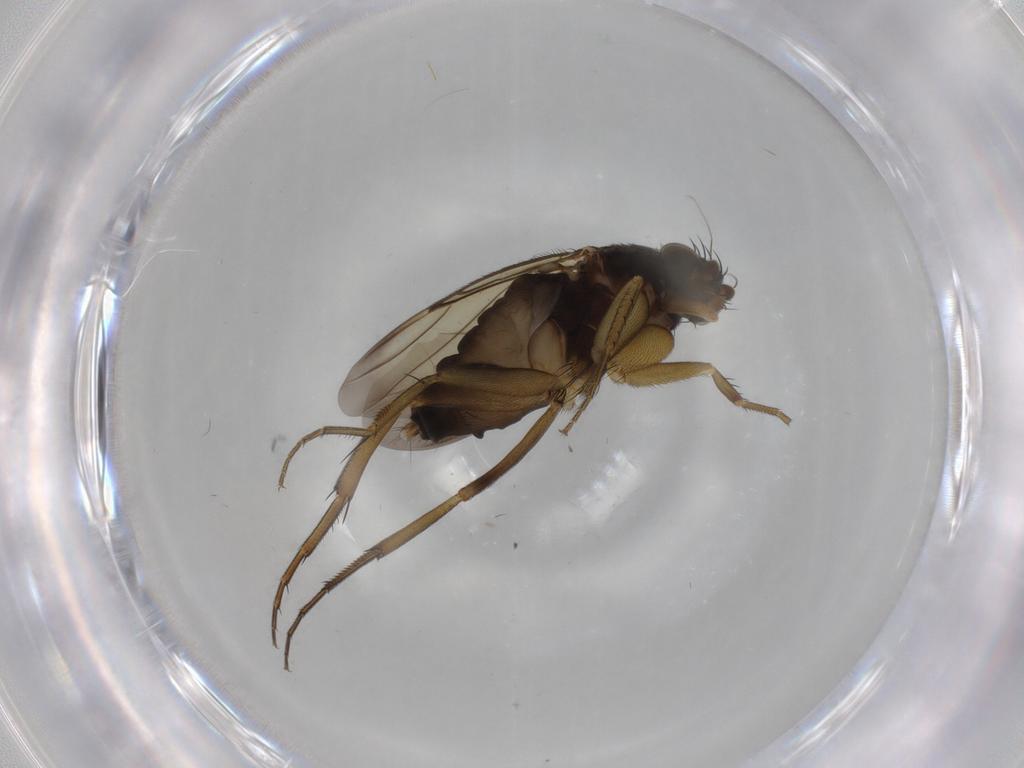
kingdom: Animalia
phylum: Arthropoda
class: Insecta
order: Diptera
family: Phoridae
